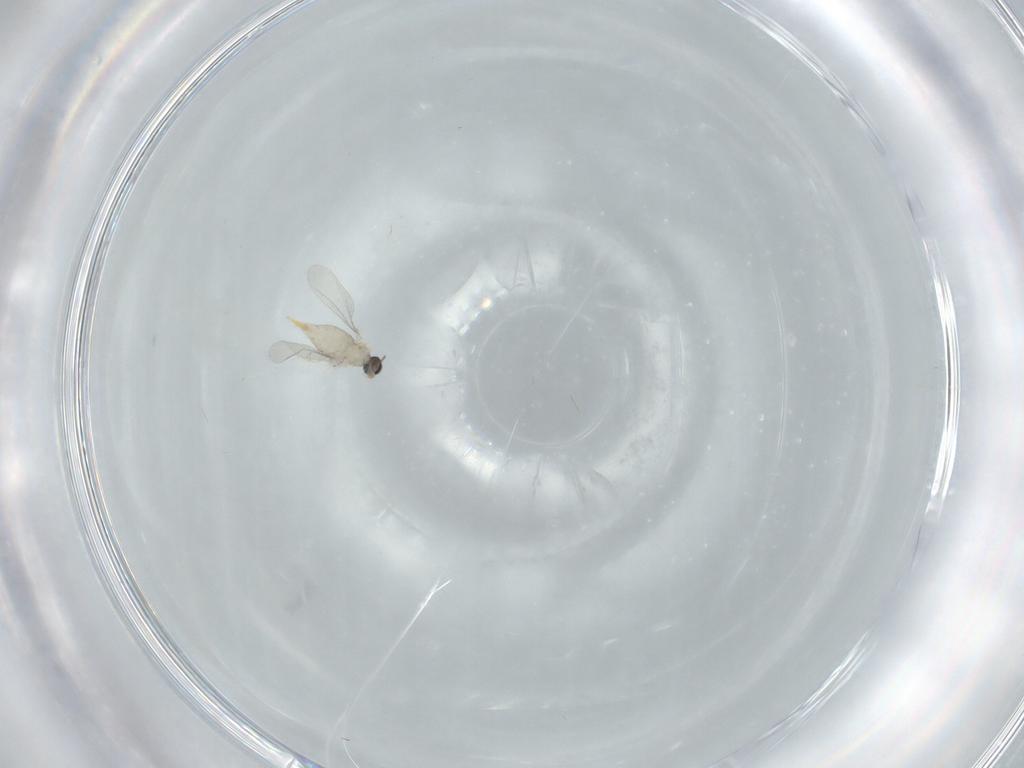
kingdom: Animalia
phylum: Arthropoda
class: Insecta
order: Diptera
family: Cecidomyiidae
